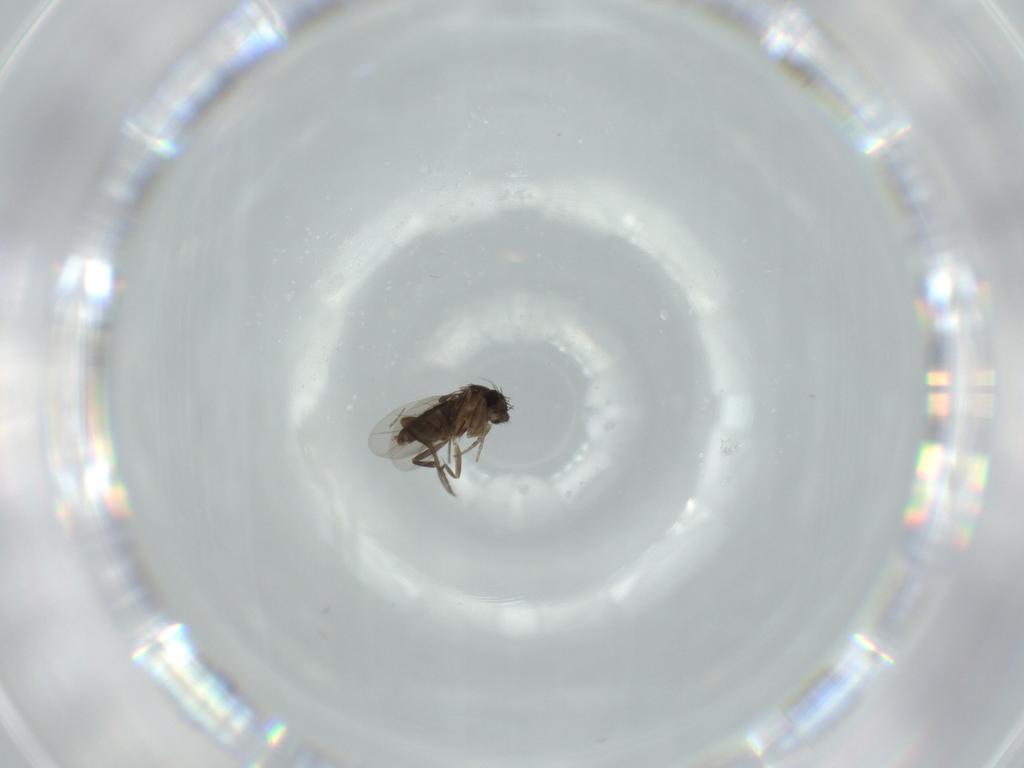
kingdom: Animalia
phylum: Arthropoda
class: Insecta
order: Diptera
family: Phoridae
